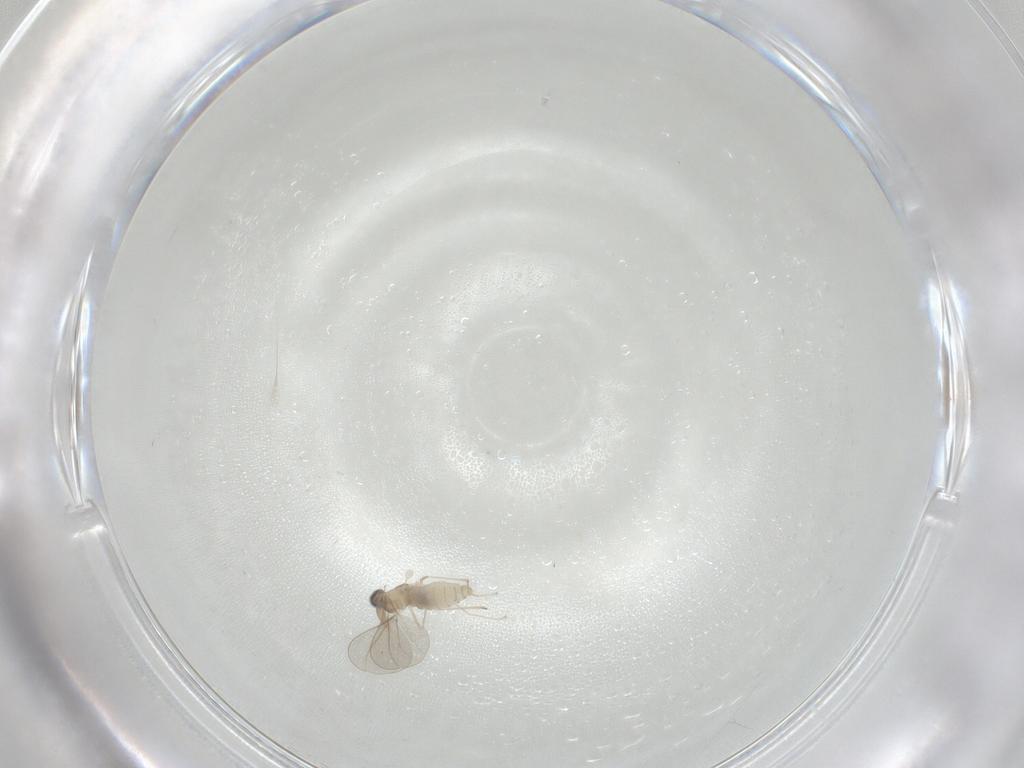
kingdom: Animalia
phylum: Arthropoda
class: Insecta
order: Diptera
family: Cecidomyiidae
